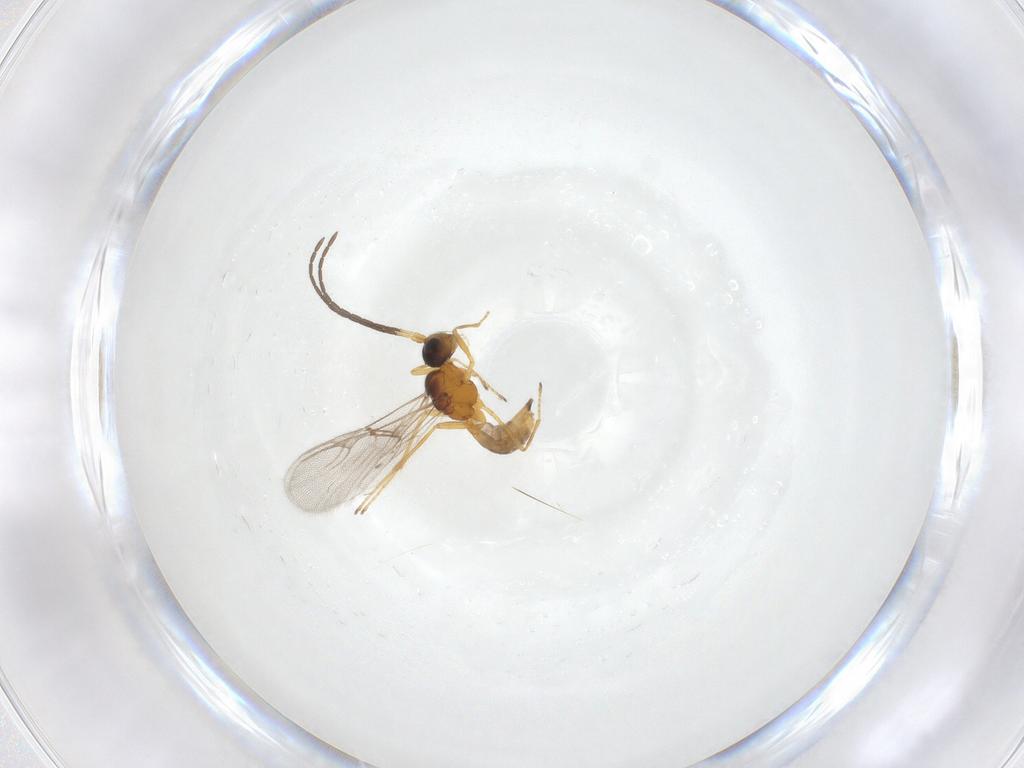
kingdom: Animalia
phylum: Arthropoda
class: Insecta
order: Hymenoptera
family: Braconidae
